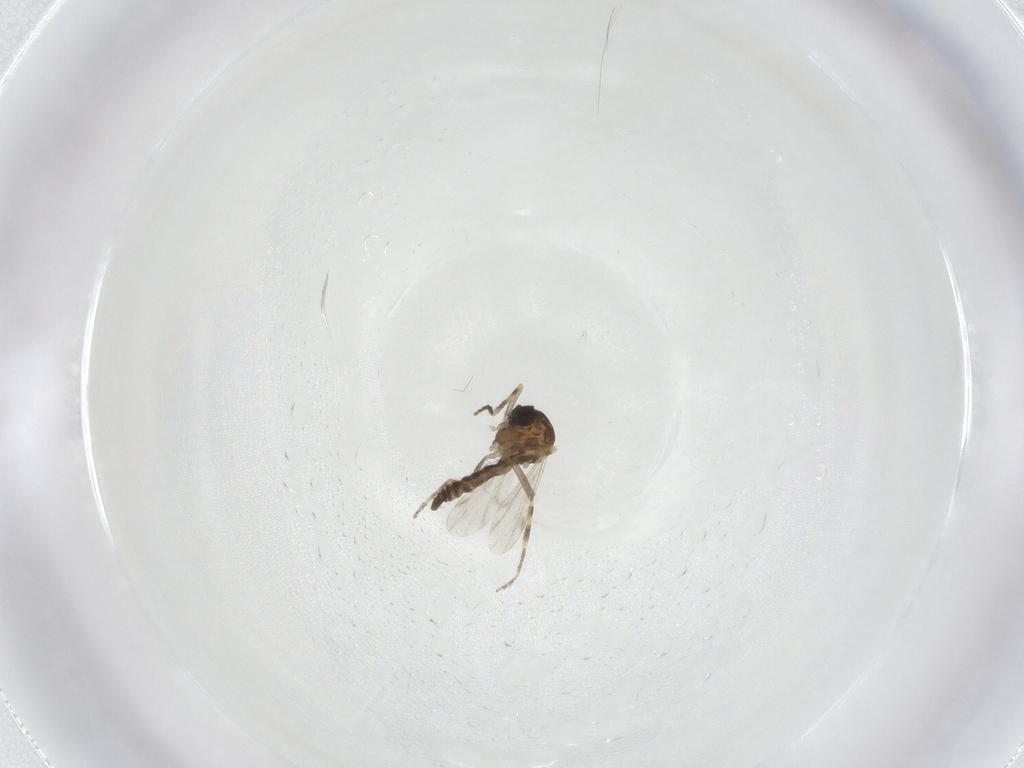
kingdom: Animalia
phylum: Arthropoda
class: Insecta
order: Diptera
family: Ceratopogonidae
